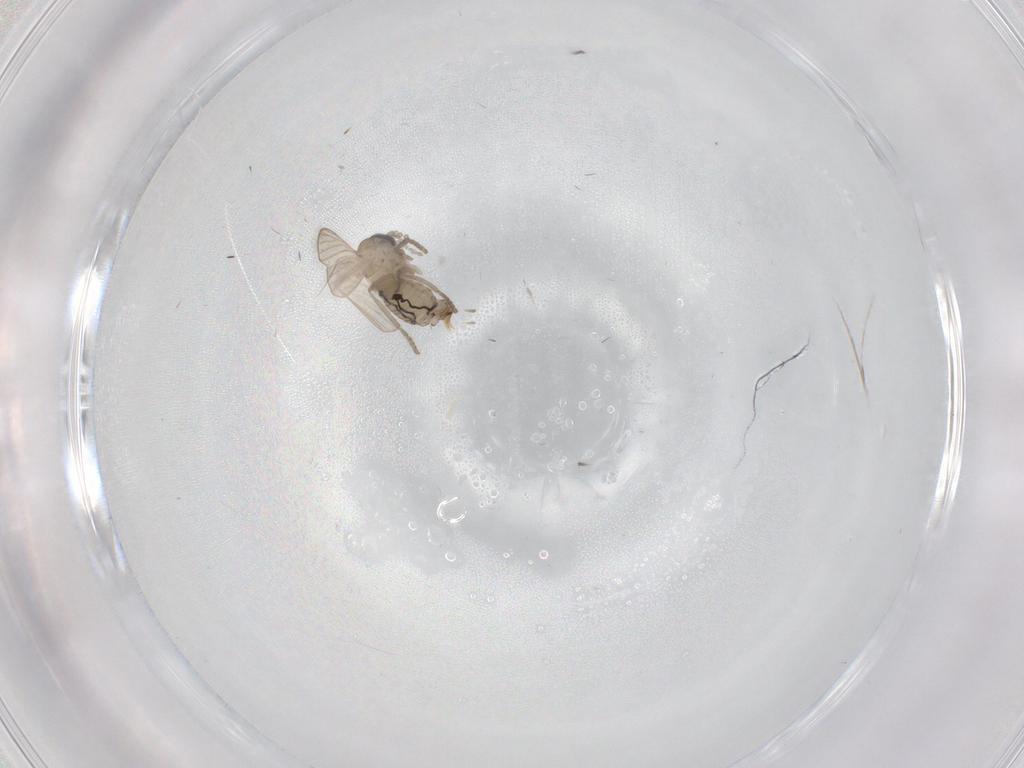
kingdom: Animalia
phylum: Arthropoda
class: Insecta
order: Diptera
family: Psychodidae
